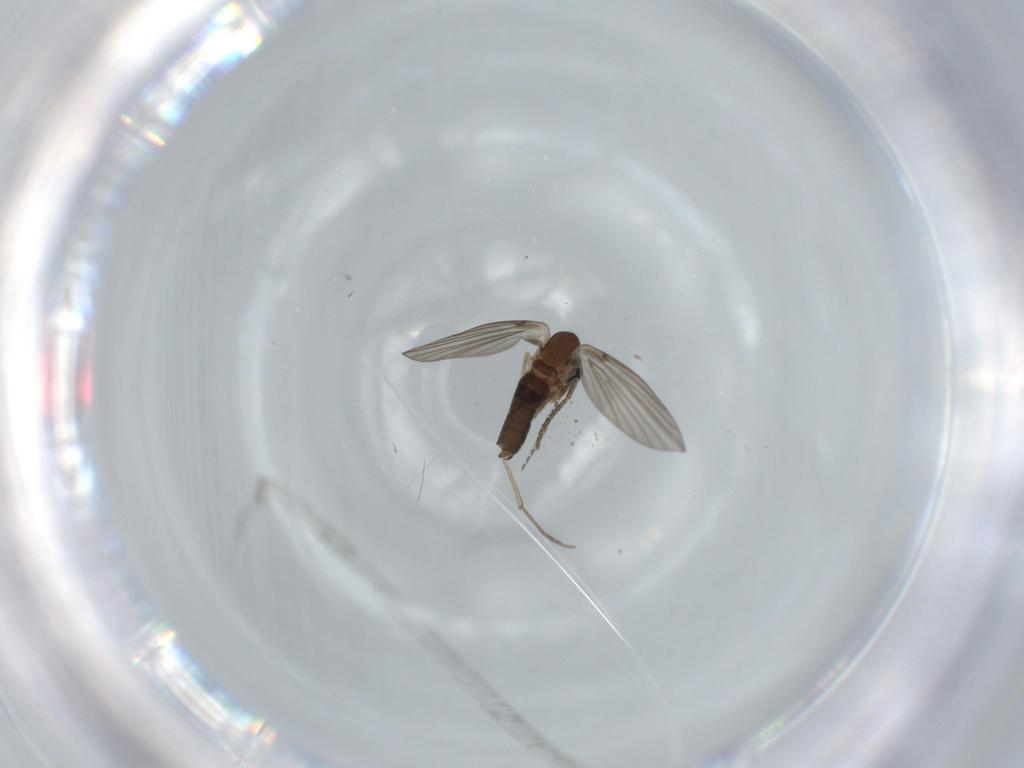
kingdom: Animalia
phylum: Arthropoda
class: Insecta
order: Diptera
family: Psychodidae
